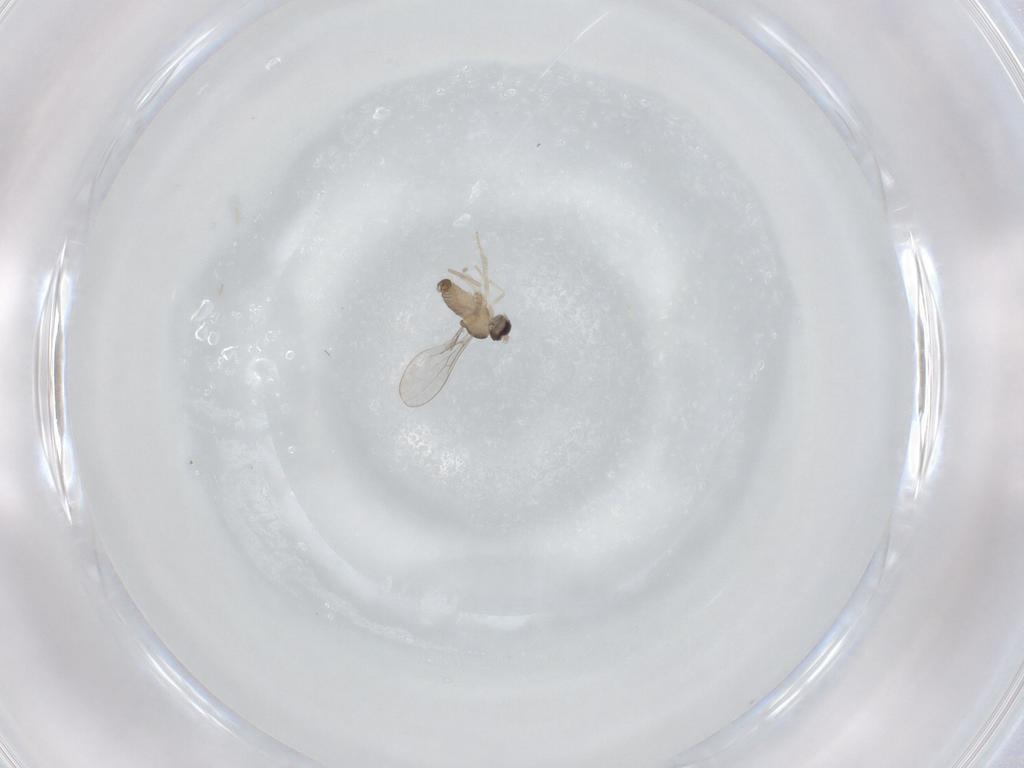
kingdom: Animalia
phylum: Arthropoda
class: Insecta
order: Diptera
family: Cecidomyiidae
